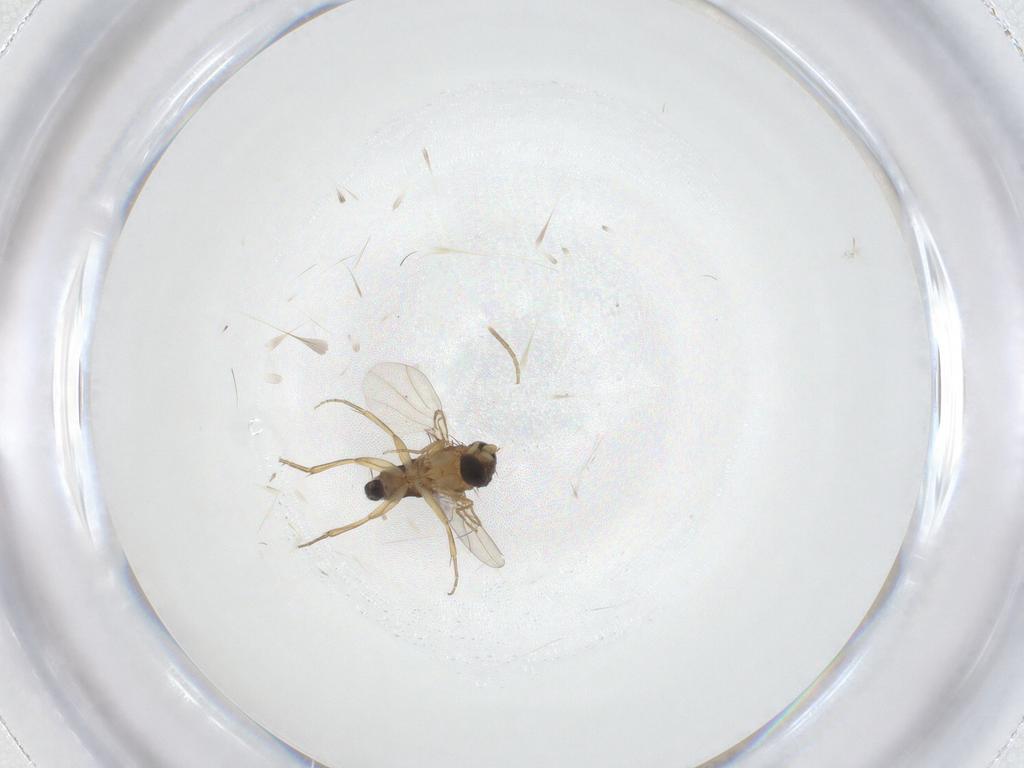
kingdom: Animalia
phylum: Arthropoda
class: Insecta
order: Diptera
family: Phoridae
